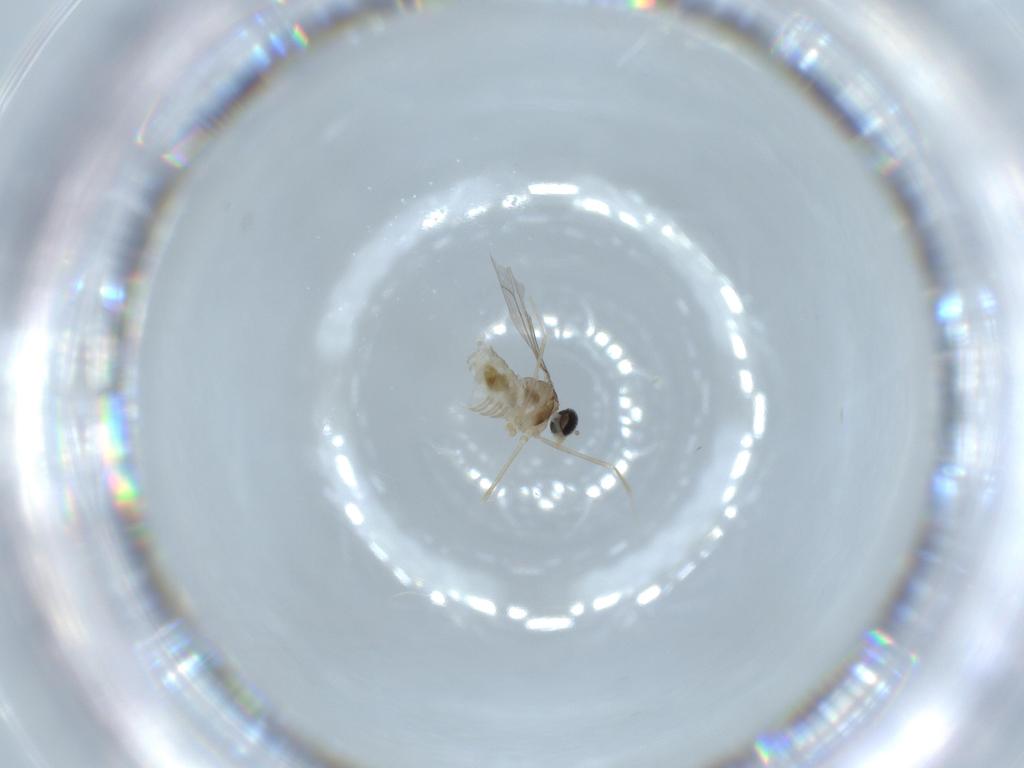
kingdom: Animalia
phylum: Arthropoda
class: Insecta
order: Diptera
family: Cecidomyiidae
